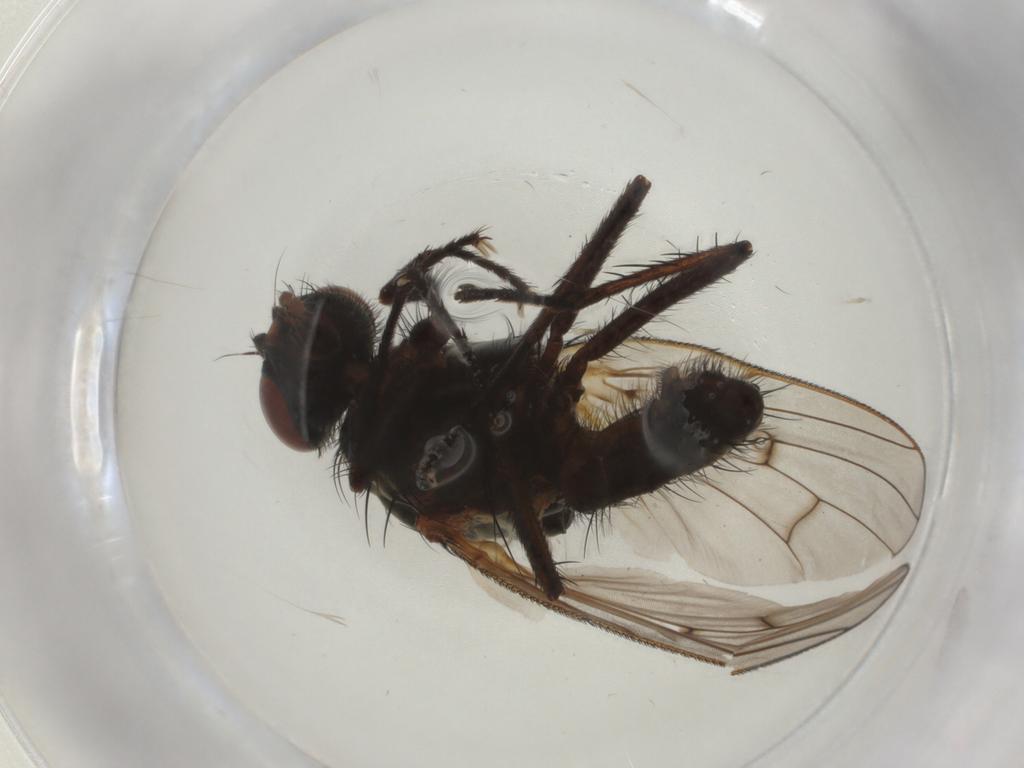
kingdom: Animalia
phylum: Arthropoda
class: Insecta
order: Diptera
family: Anthomyiidae
